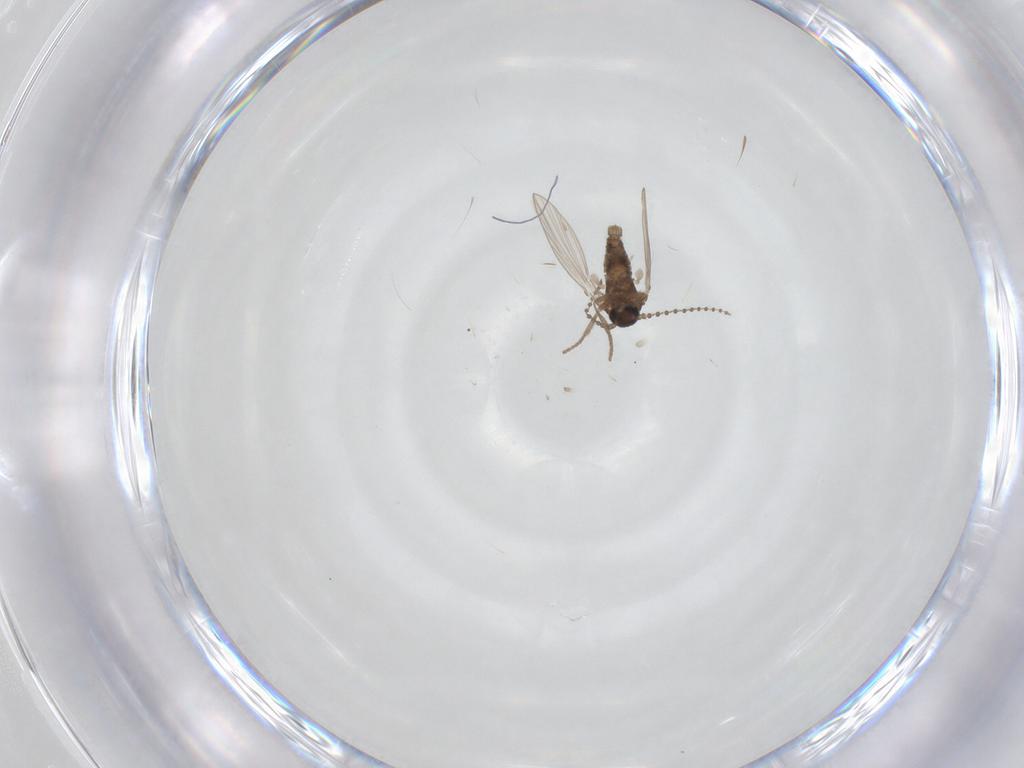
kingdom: Animalia
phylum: Arthropoda
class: Insecta
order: Diptera
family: Psychodidae
